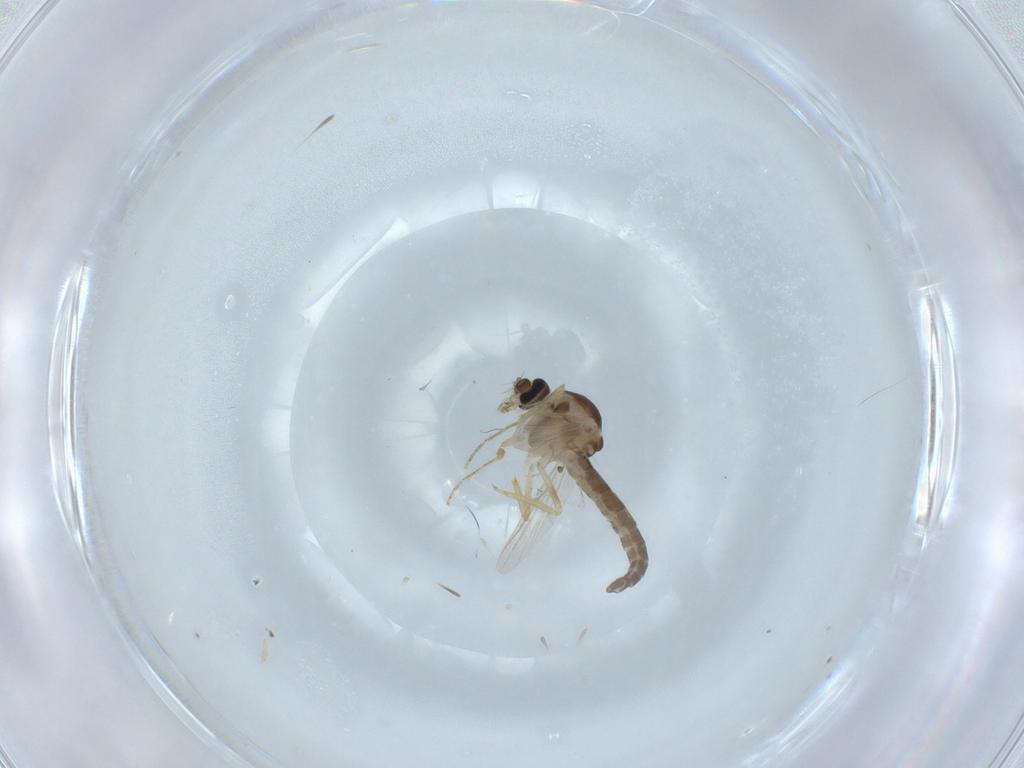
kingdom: Animalia
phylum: Arthropoda
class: Insecta
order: Diptera
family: Ceratopogonidae
